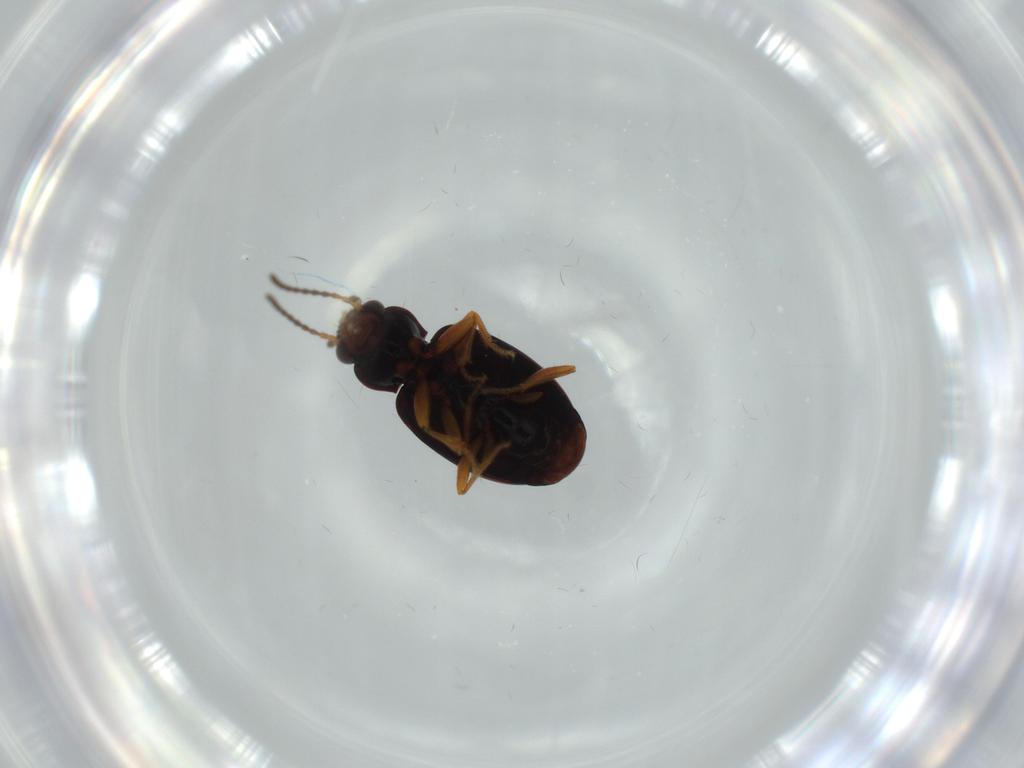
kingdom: Animalia
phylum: Arthropoda
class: Insecta
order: Coleoptera
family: Carabidae
